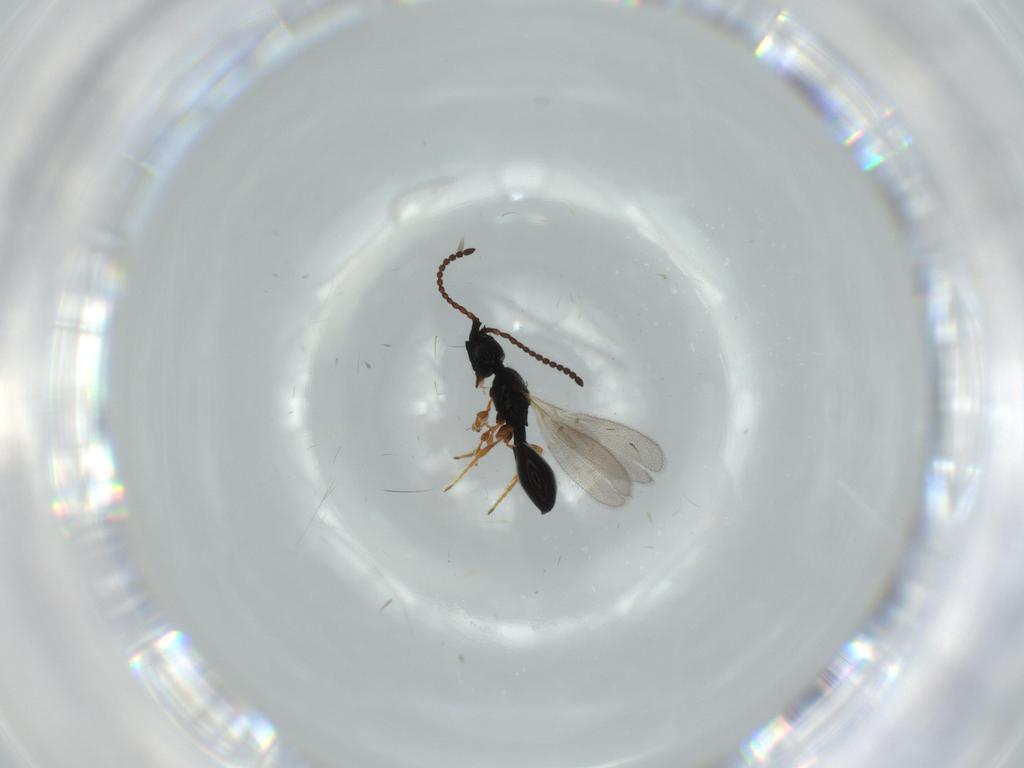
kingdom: Animalia
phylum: Arthropoda
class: Insecta
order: Hymenoptera
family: Diapriidae
